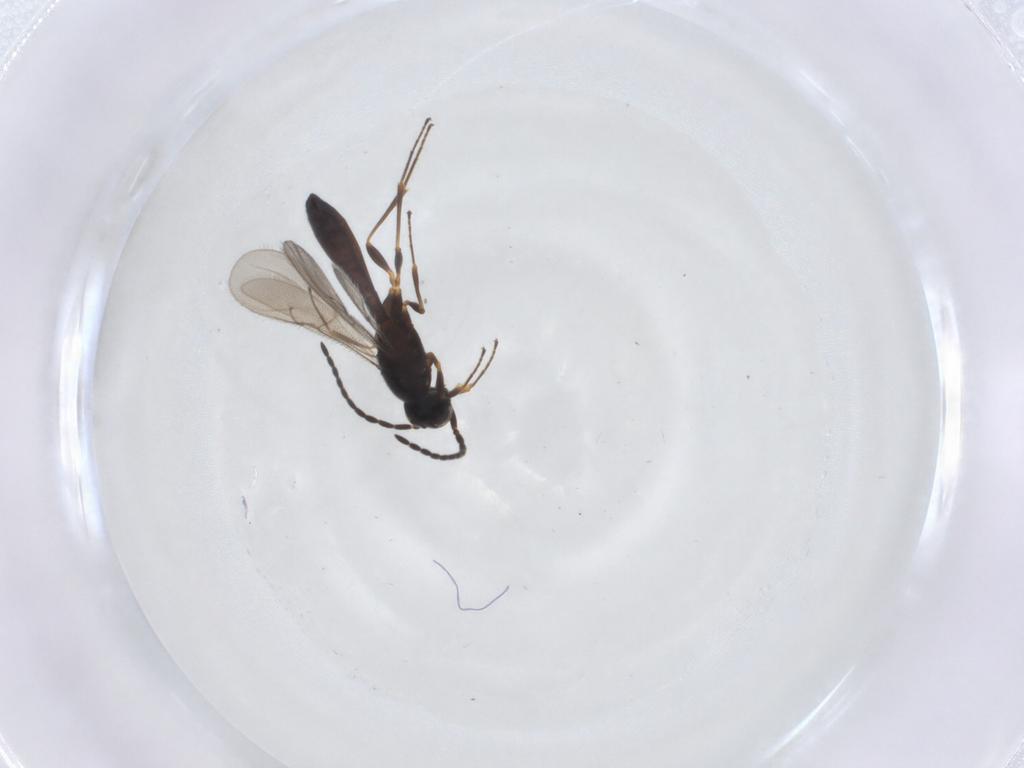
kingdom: Animalia
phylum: Arthropoda
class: Insecta
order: Hymenoptera
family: Scelionidae
